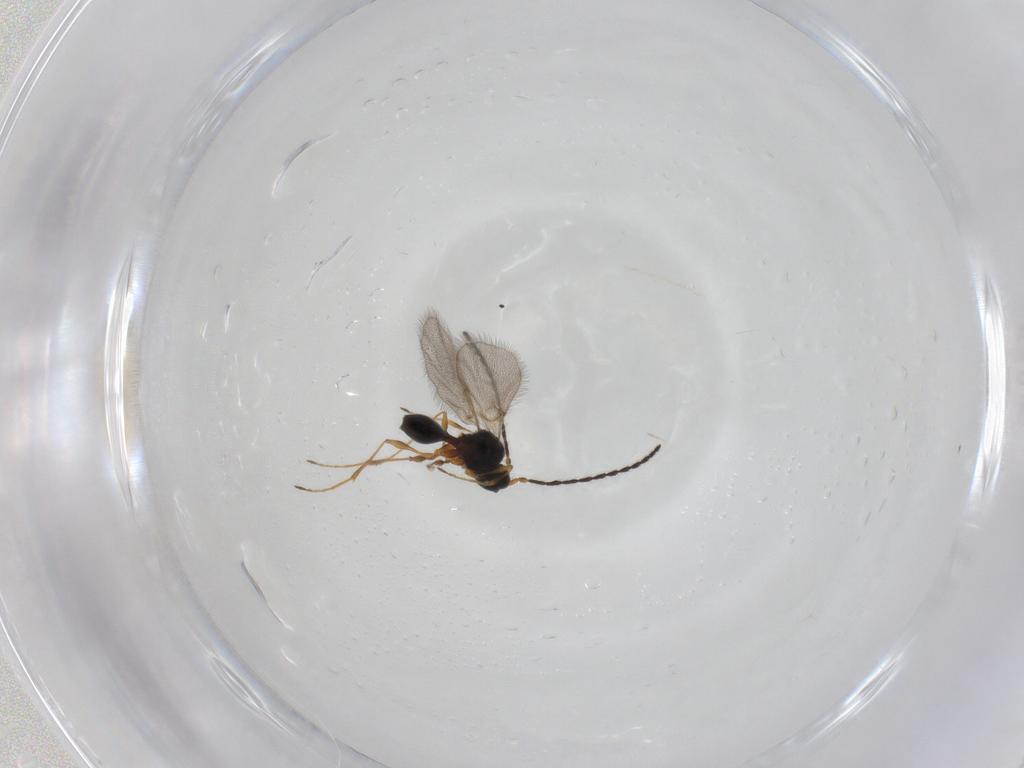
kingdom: Animalia
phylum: Arthropoda
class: Insecta
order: Hymenoptera
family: Diapriidae
